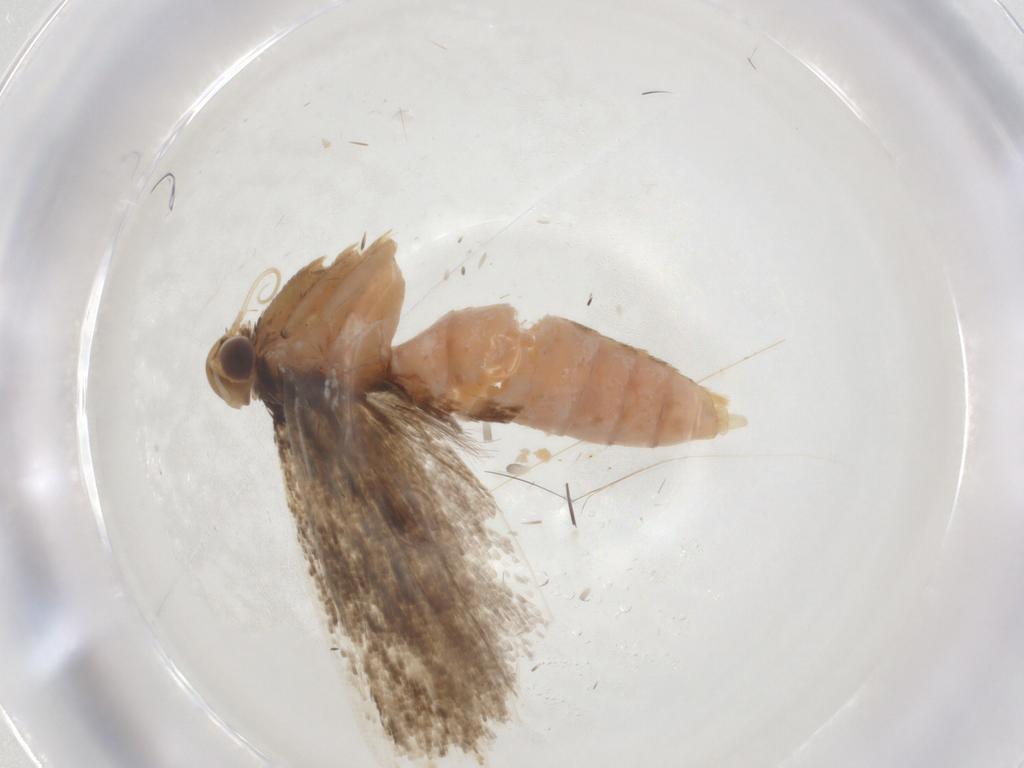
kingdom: Animalia
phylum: Arthropoda
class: Insecta
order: Lepidoptera
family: Gelechiidae
